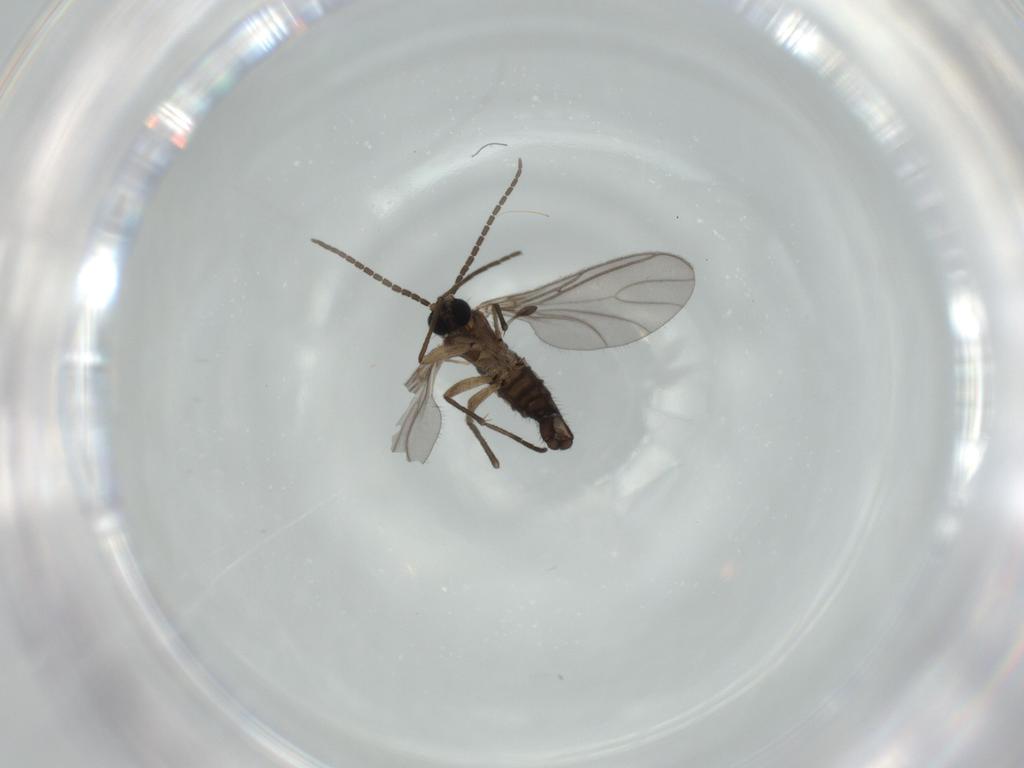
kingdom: Animalia
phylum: Arthropoda
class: Insecta
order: Diptera
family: Sciaridae
